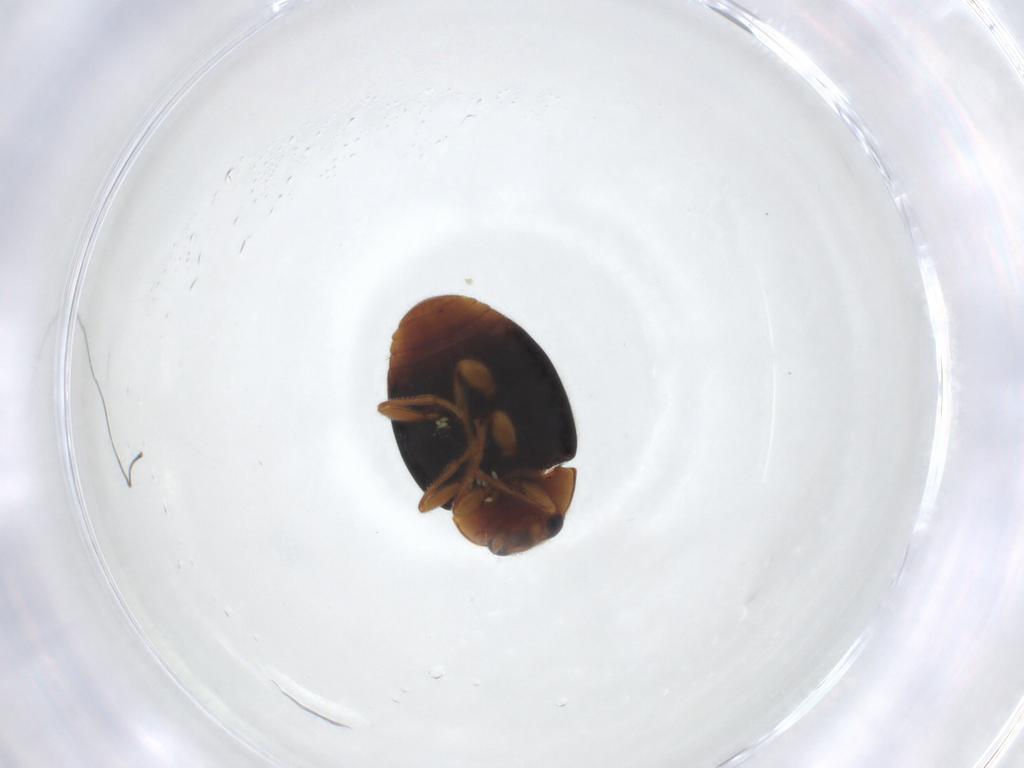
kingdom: Animalia
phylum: Arthropoda
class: Insecta
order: Coleoptera
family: Coccinellidae
